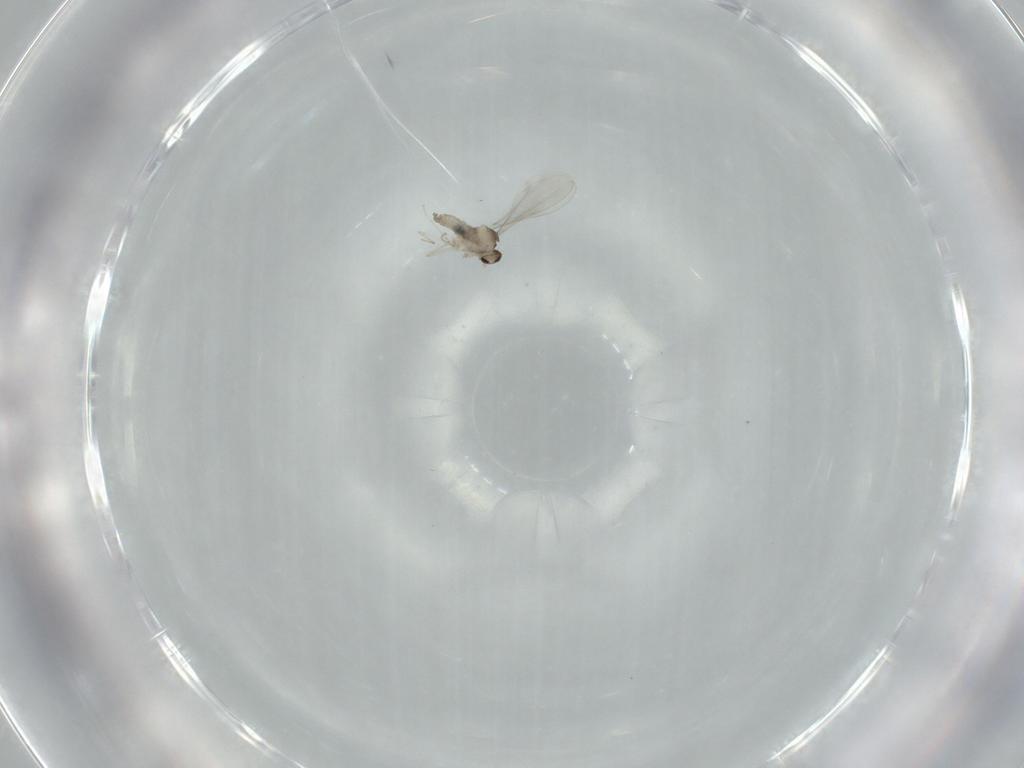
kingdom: Animalia
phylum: Arthropoda
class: Insecta
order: Diptera
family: Cecidomyiidae
